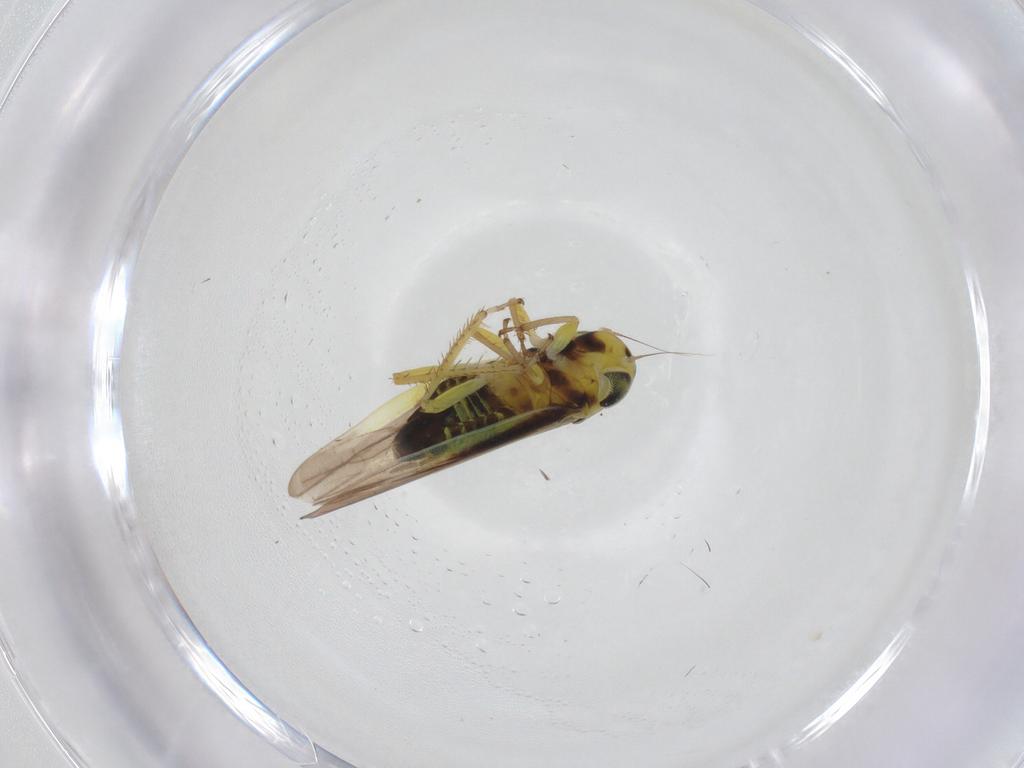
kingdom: Animalia
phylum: Arthropoda
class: Insecta
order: Hemiptera
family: Cicadellidae
